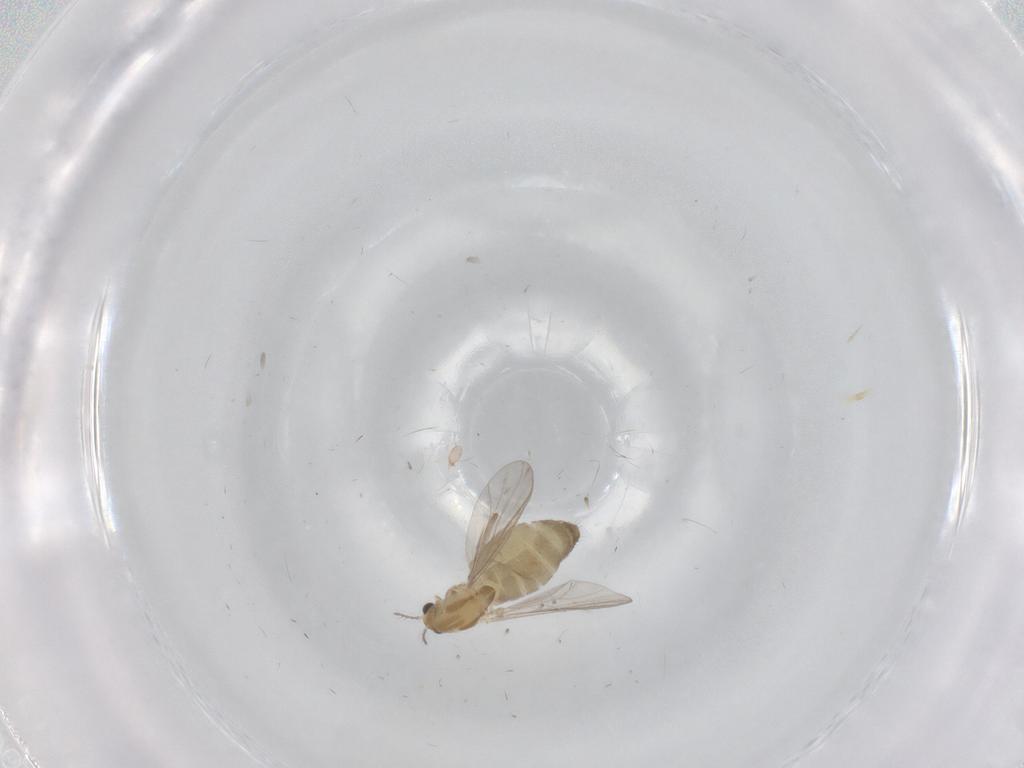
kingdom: Animalia
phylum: Arthropoda
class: Insecta
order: Diptera
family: Chironomidae
